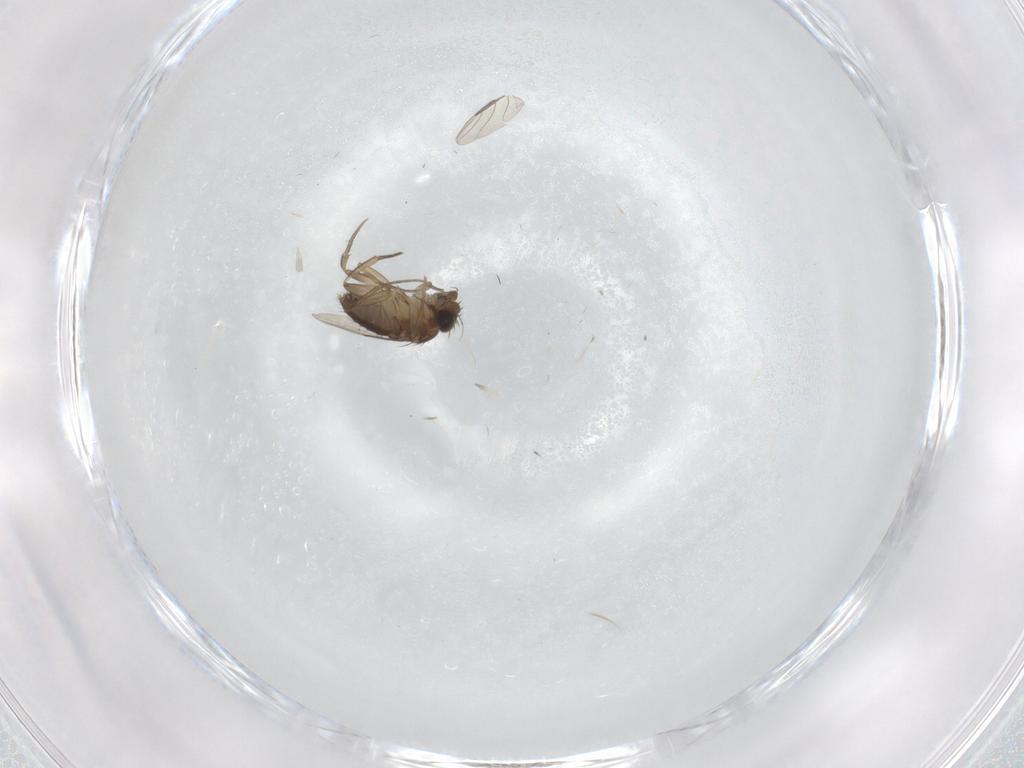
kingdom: Animalia
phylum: Arthropoda
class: Insecta
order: Diptera
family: Phoridae
